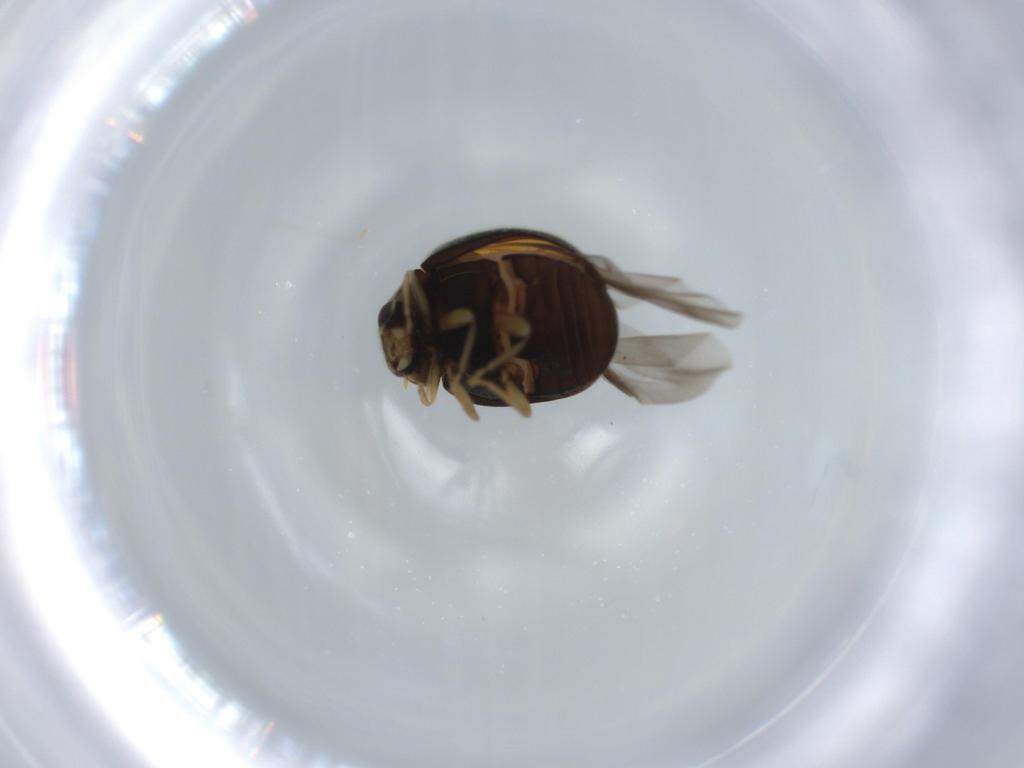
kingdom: Animalia
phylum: Arthropoda
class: Insecta
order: Coleoptera
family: Coccinellidae
